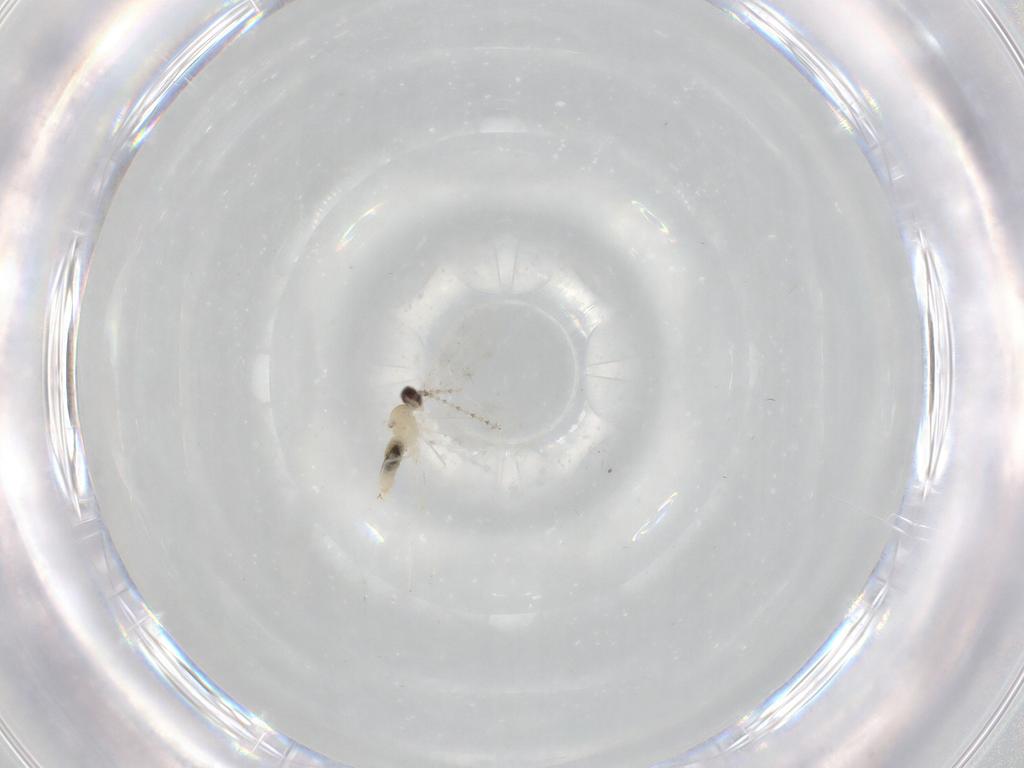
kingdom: Animalia
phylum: Arthropoda
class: Insecta
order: Diptera
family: Cecidomyiidae
